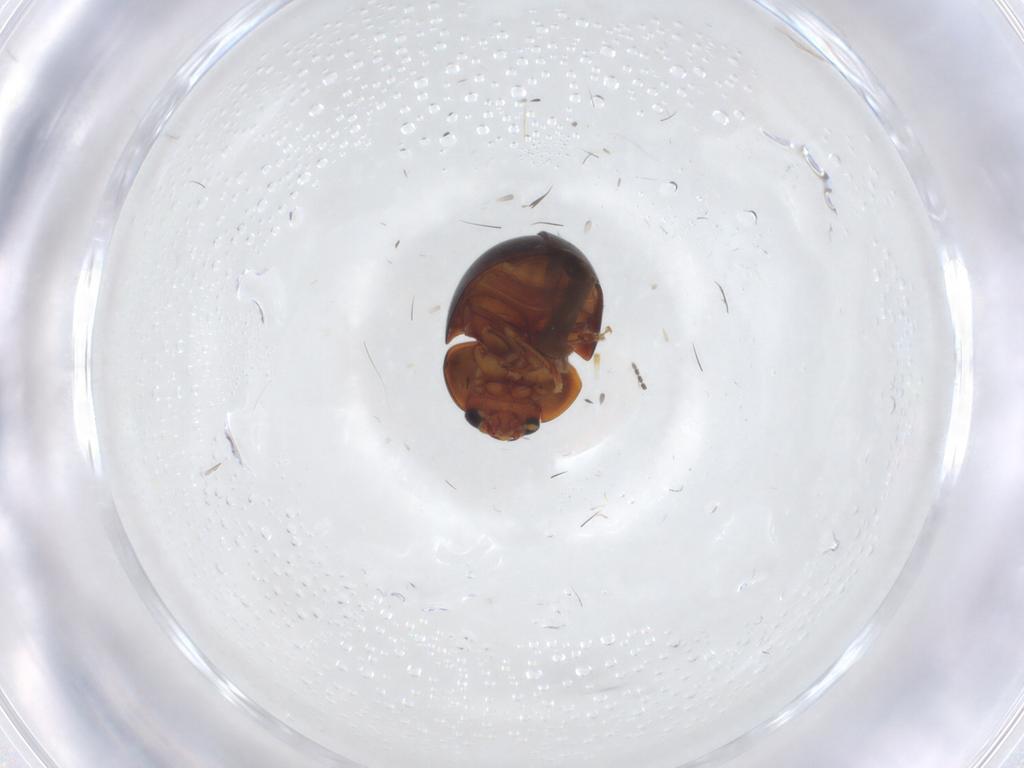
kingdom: Animalia
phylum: Arthropoda
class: Insecta
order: Coleoptera
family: Phalacridae
